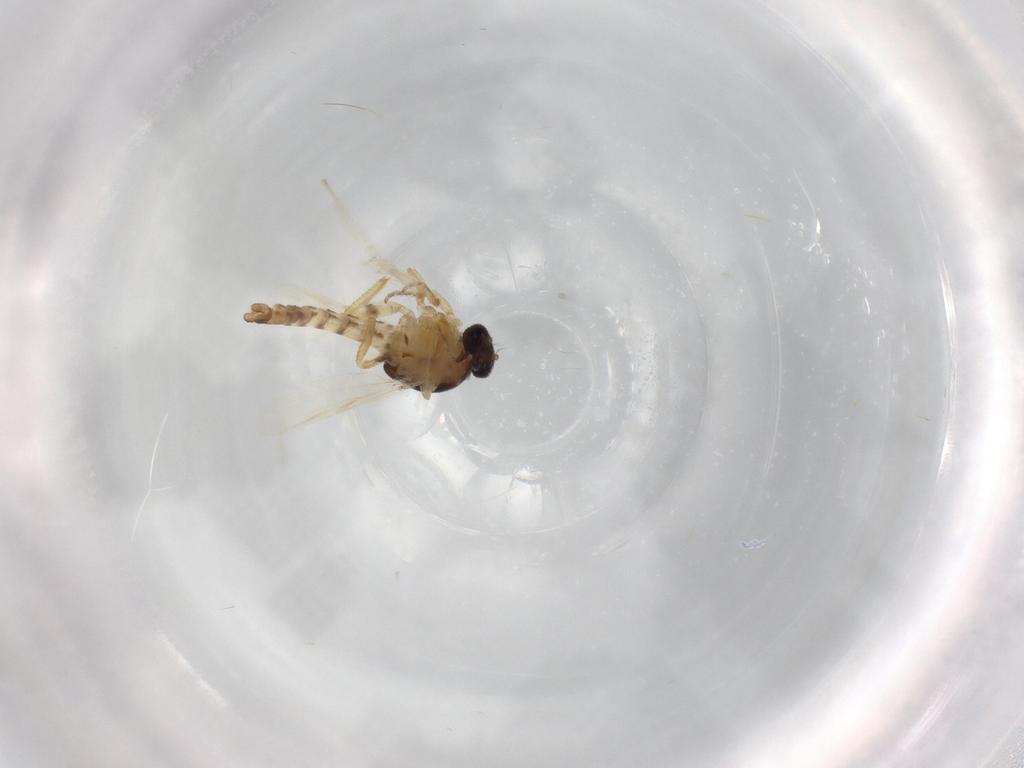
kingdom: Animalia
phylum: Arthropoda
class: Insecta
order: Diptera
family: Ceratopogonidae
